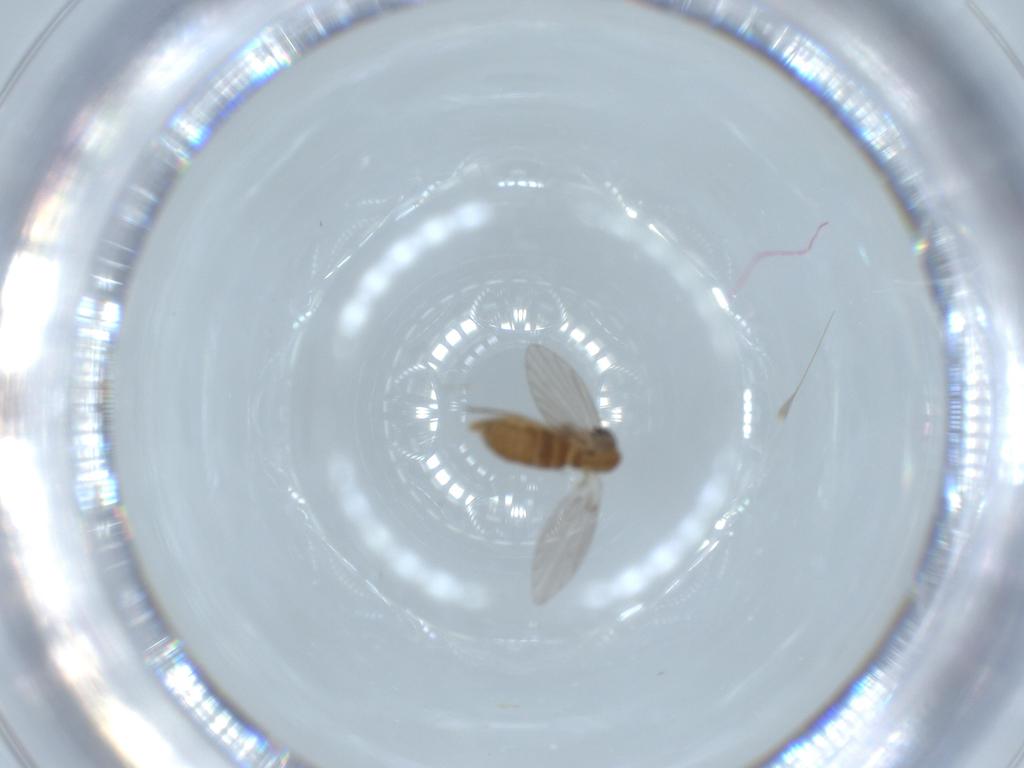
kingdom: Animalia
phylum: Arthropoda
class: Insecta
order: Diptera
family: Psychodidae
